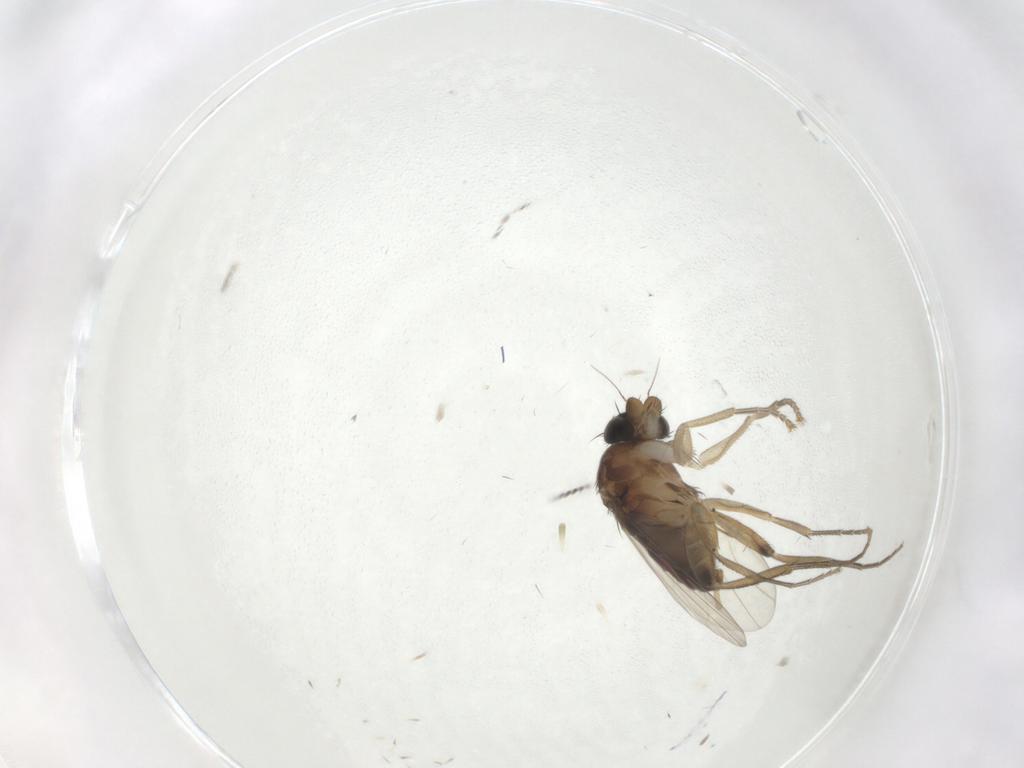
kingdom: Animalia
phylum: Arthropoda
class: Insecta
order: Diptera
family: Phoridae
